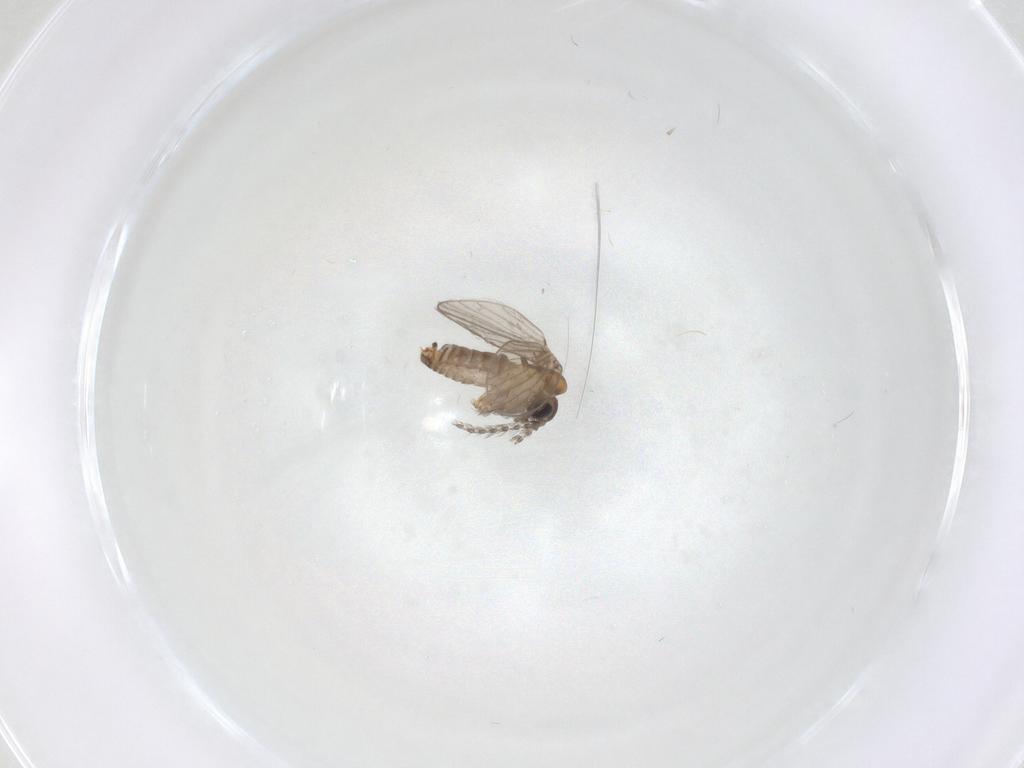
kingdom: Animalia
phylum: Arthropoda
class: Insecta
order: Diptera
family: Psychodidae
